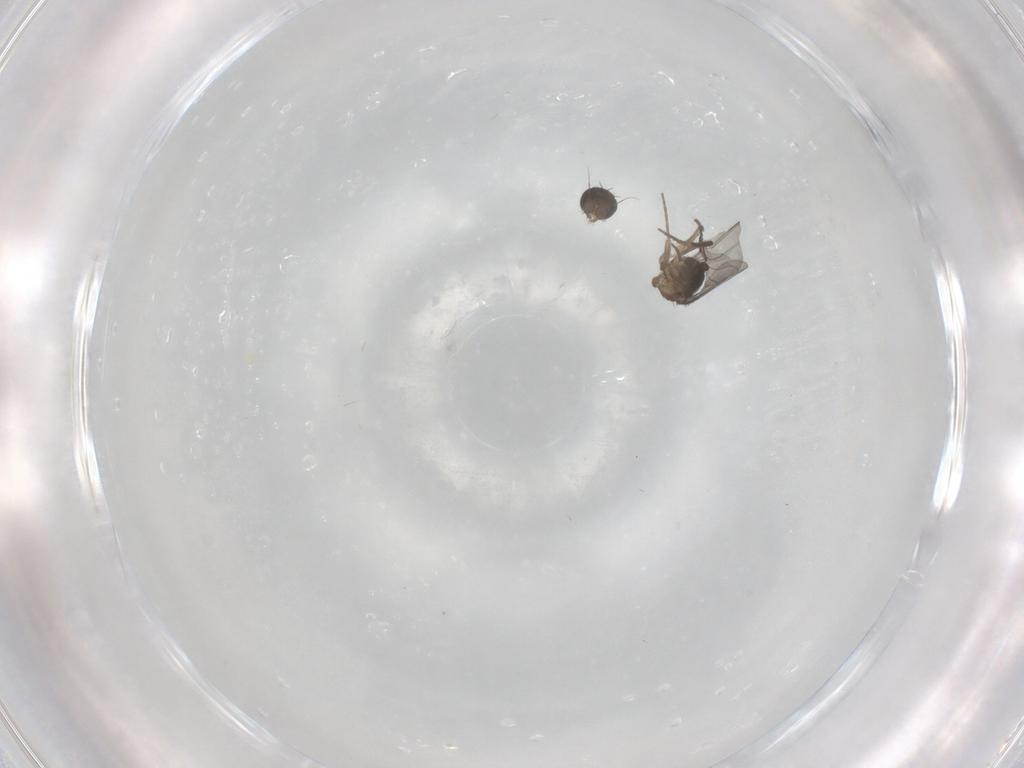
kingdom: Animalia
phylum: Arthropoda
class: Insecta
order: Diptera
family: Phoridae
